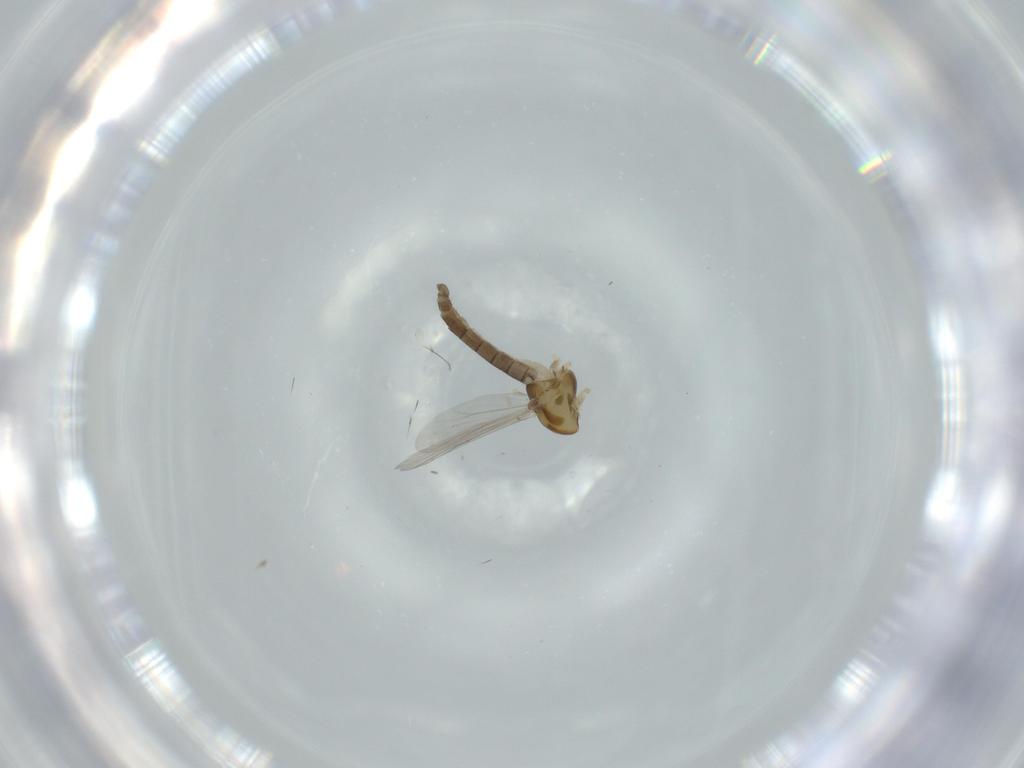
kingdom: Animalia
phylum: Arthropoda
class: Insecta
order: Diptera
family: Chironomidae
